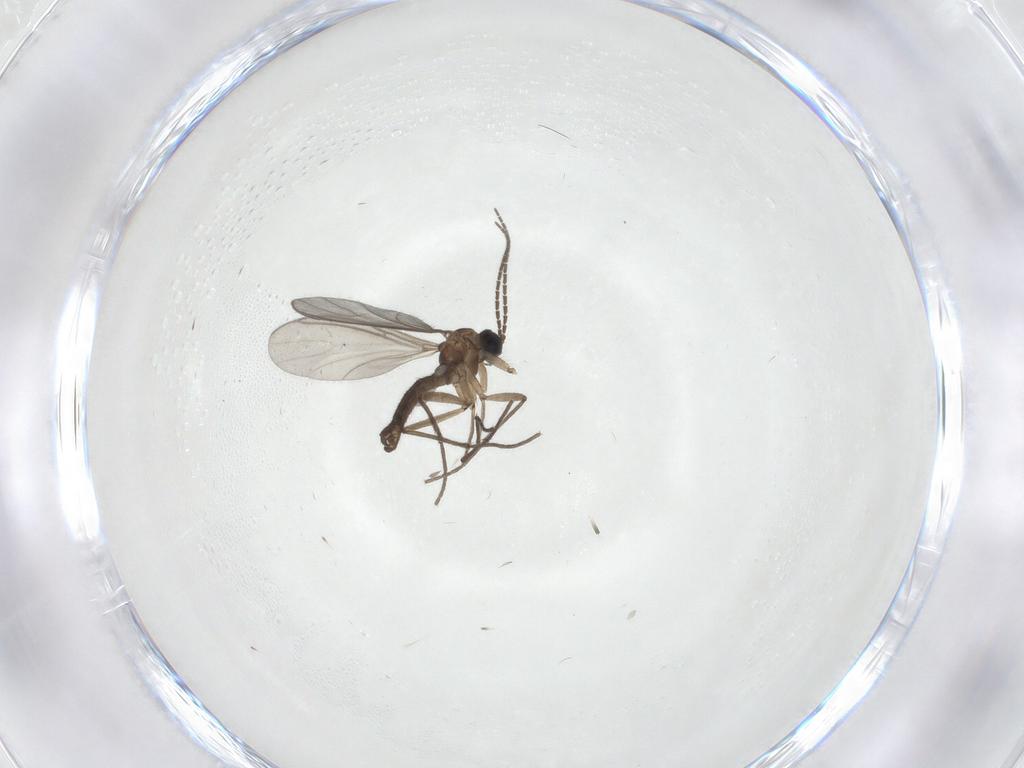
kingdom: Animalia
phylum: Arthropoda
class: Insecta
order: Diptera
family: Sciaridae
